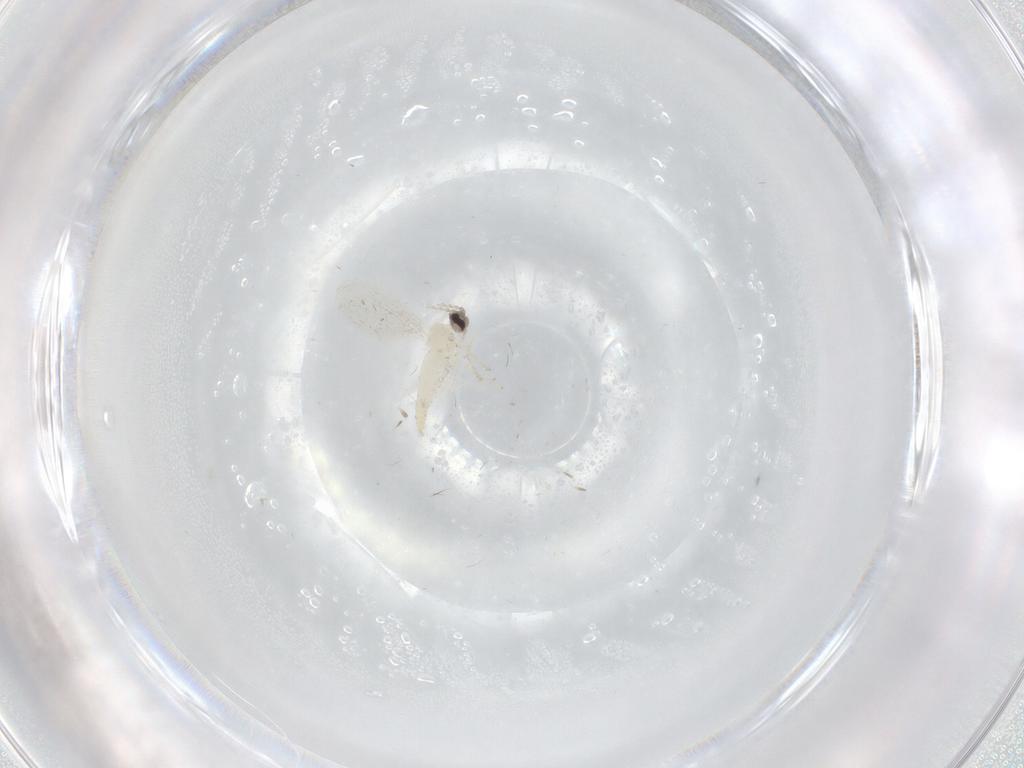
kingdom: Animalia
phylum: Arthropoda
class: Insecta
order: Diptera
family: Cecidomyiidae
